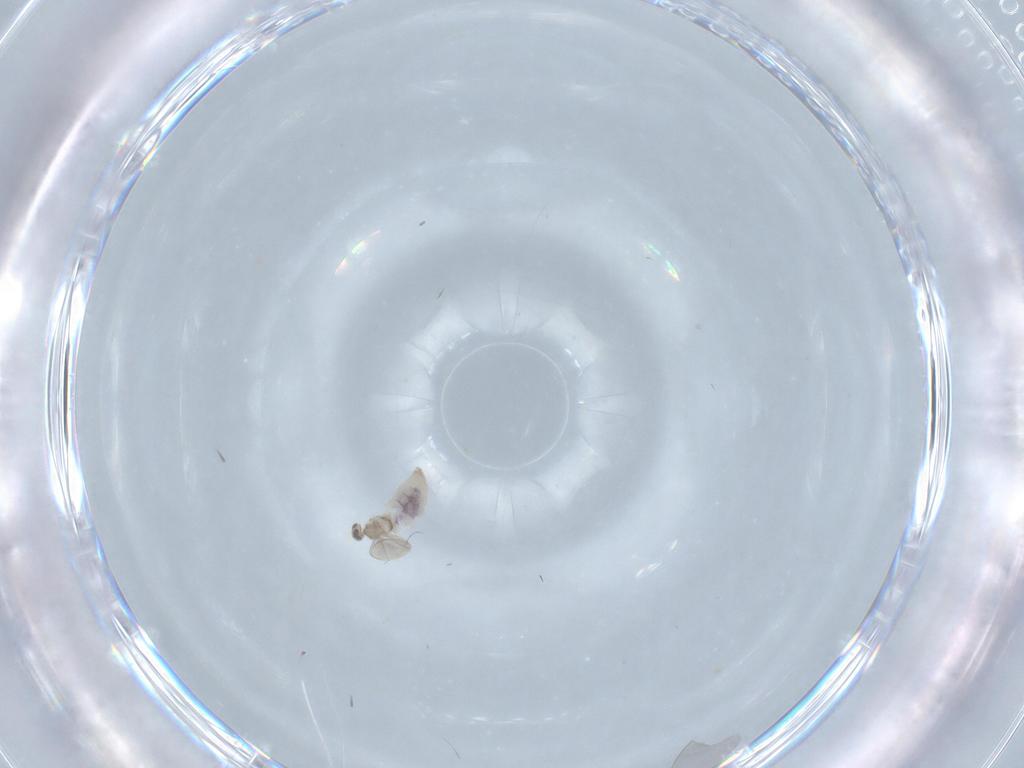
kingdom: Animalia
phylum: Arthropoda
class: Insecta
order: Diptera
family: Cecidomyiidae
